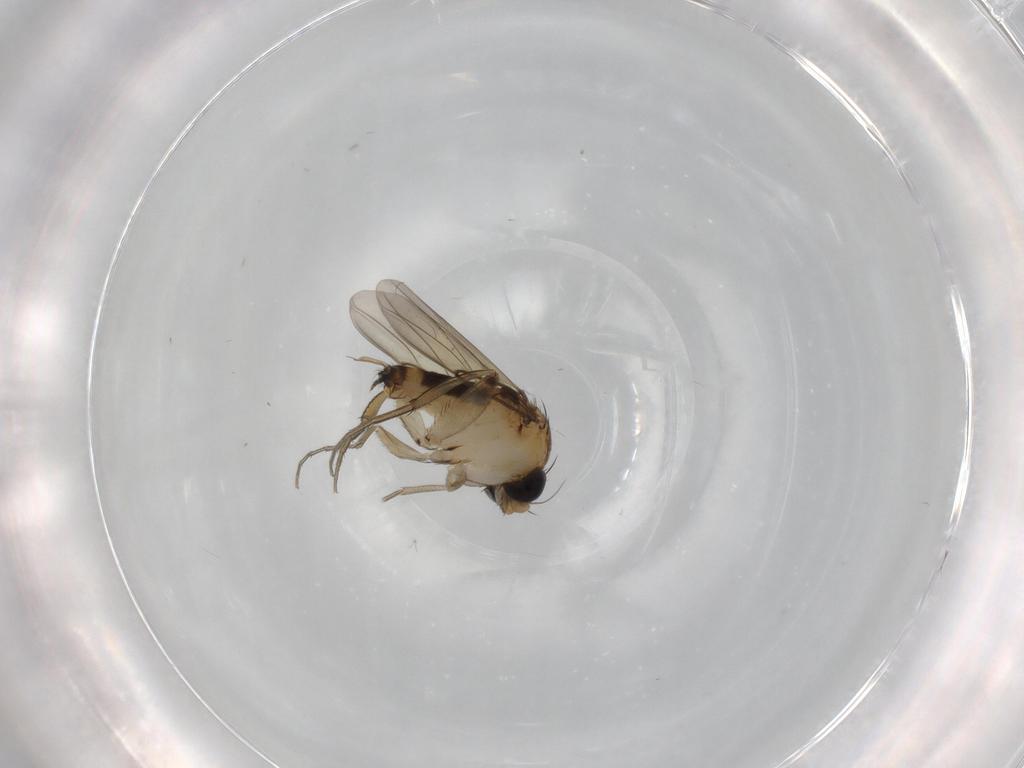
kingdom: Animalia
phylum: Arthropoda
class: Insecta
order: Diptera
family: Phoridae
